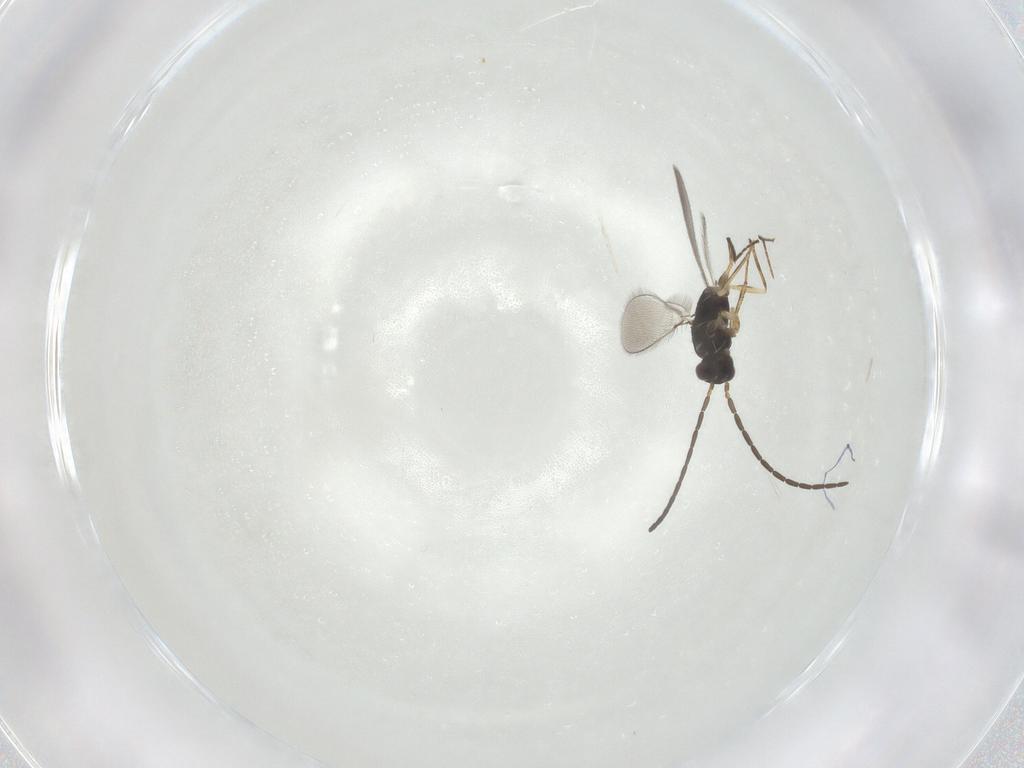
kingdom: Animalia
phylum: Arthropoda
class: Insecta
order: Hymenoptera
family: Mymaridae
